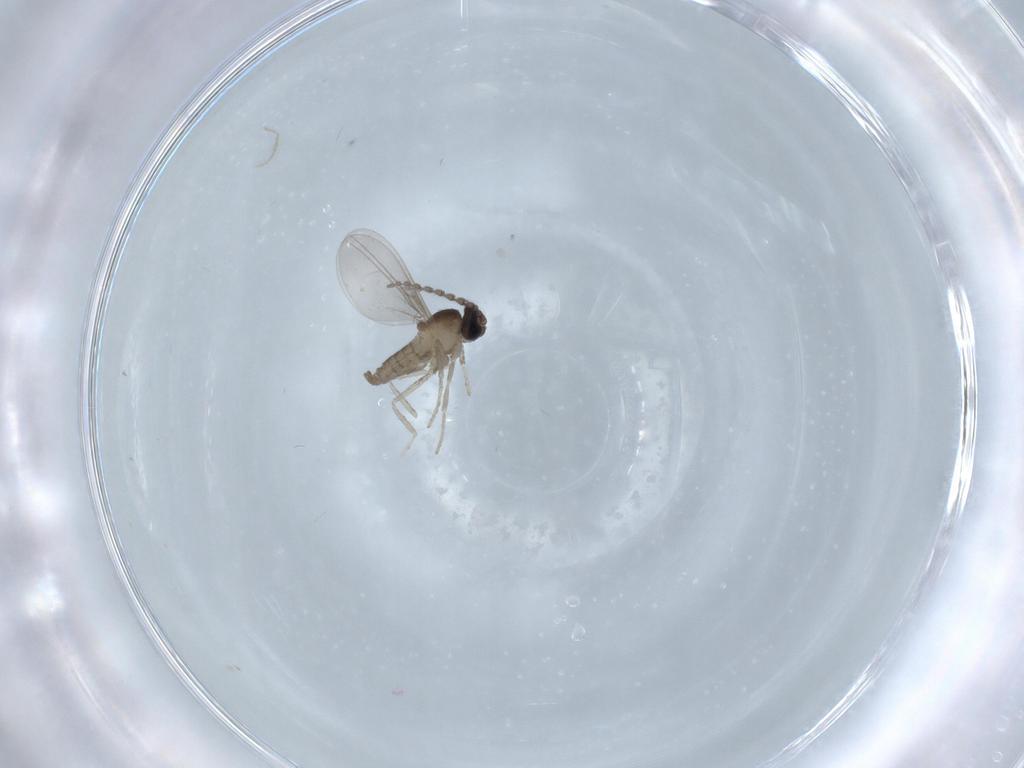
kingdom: Animalia
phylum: Arthropoda
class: Insecta
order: Diptera
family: Cecidomyiidae
